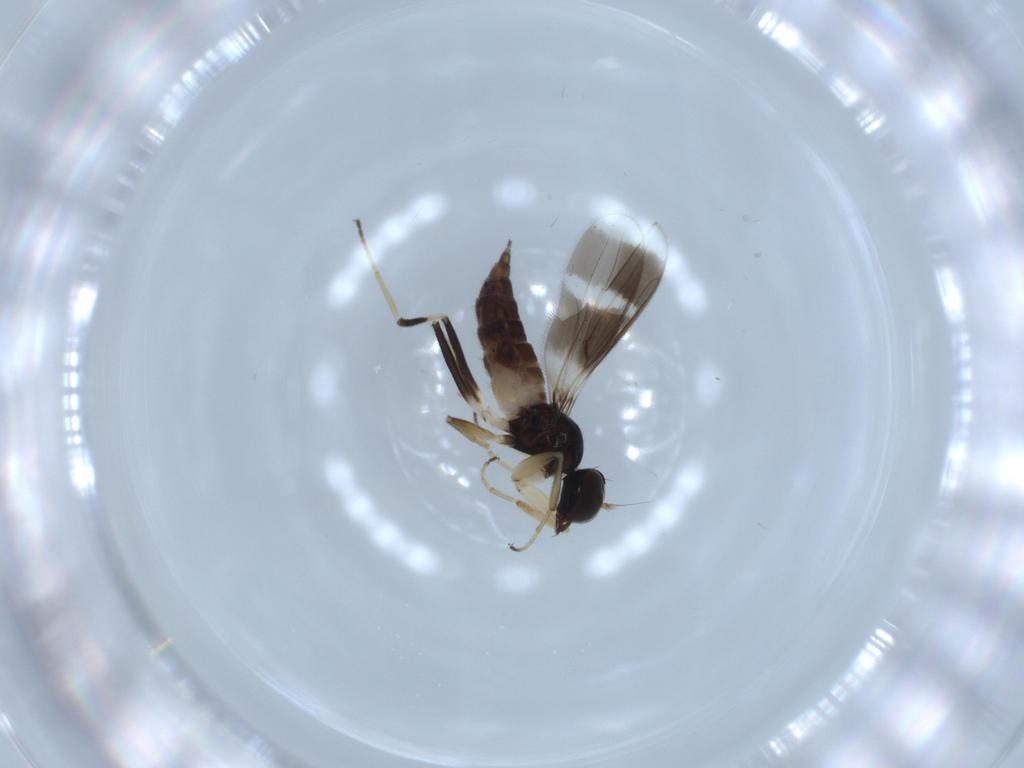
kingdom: Animalia
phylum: Arthropoda
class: Insecta
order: Diptera
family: Hybotidae
